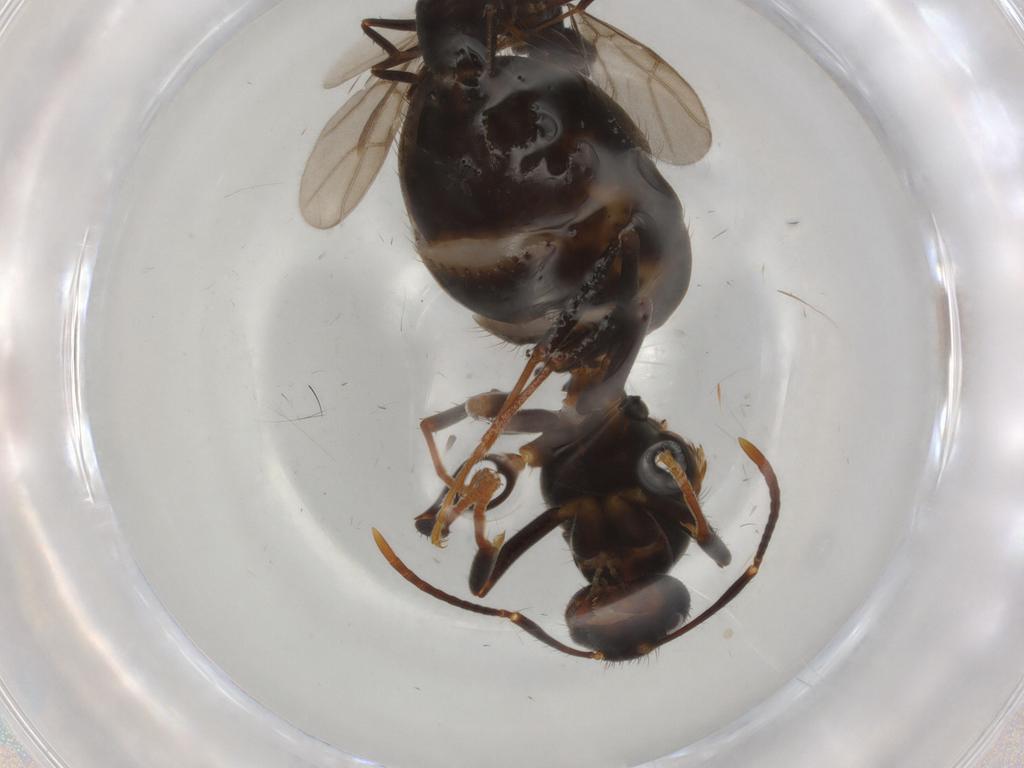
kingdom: Animalia
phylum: Arthropoda
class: Insecta
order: Hymenoptera
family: Formicidae
